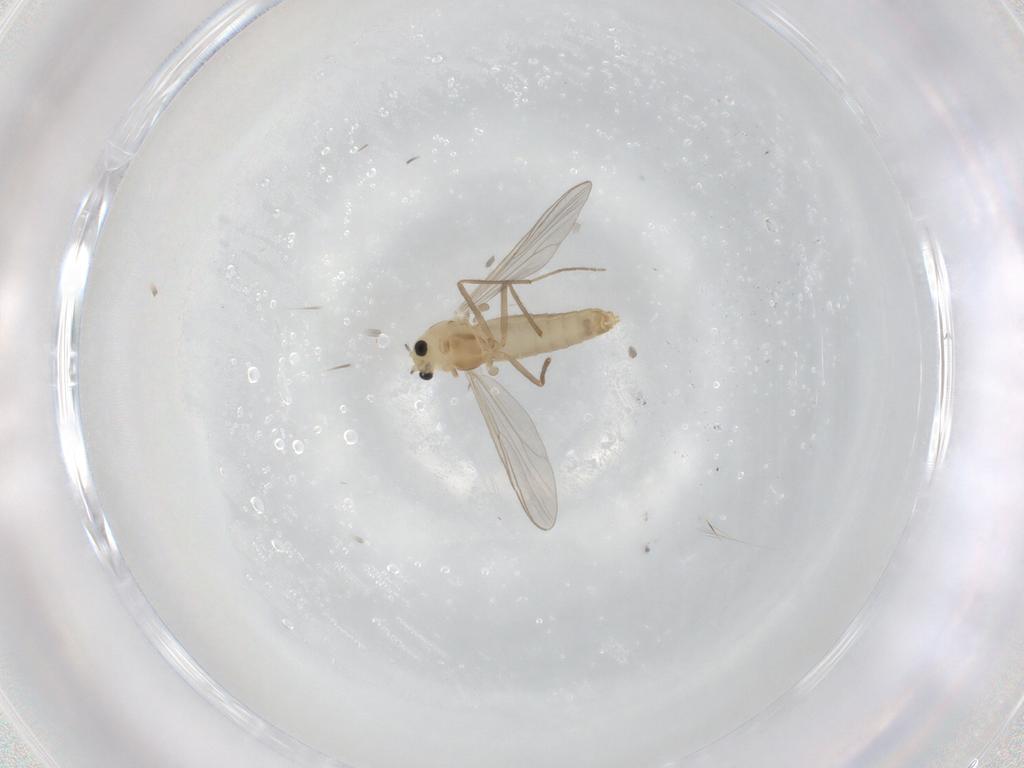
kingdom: Animalia
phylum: Arthropoda
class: Insecta
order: Diptera
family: Chironomidae
